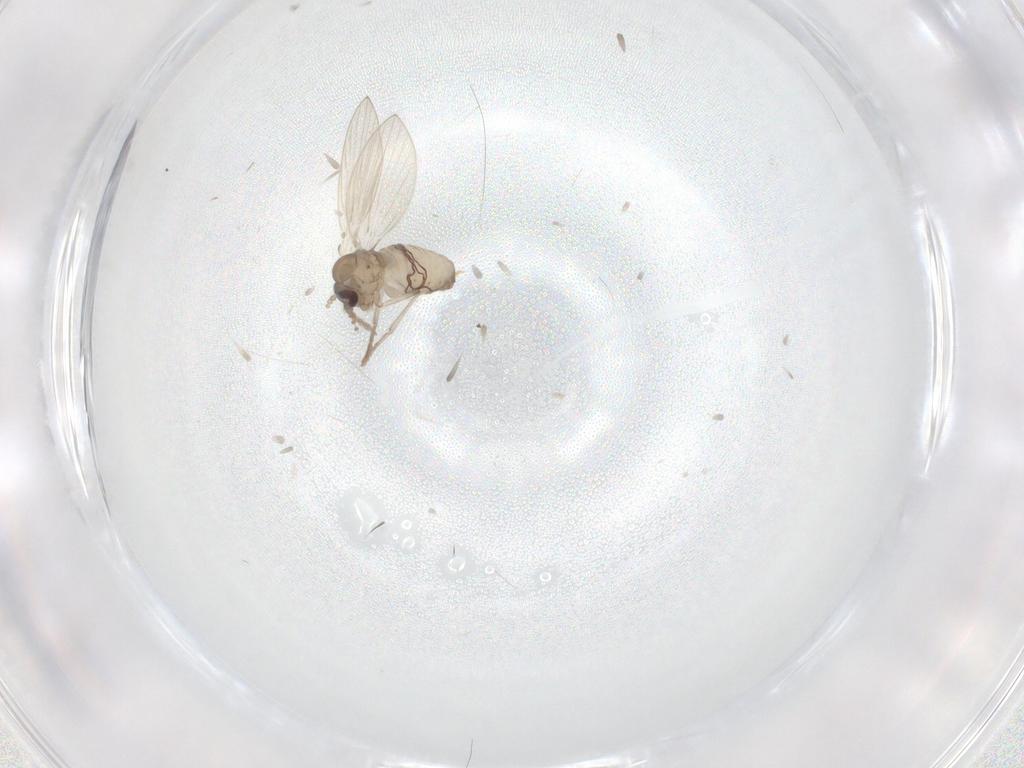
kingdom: Animalia
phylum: Arthropoda
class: Insecta
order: Diptera
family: Psychodidae
